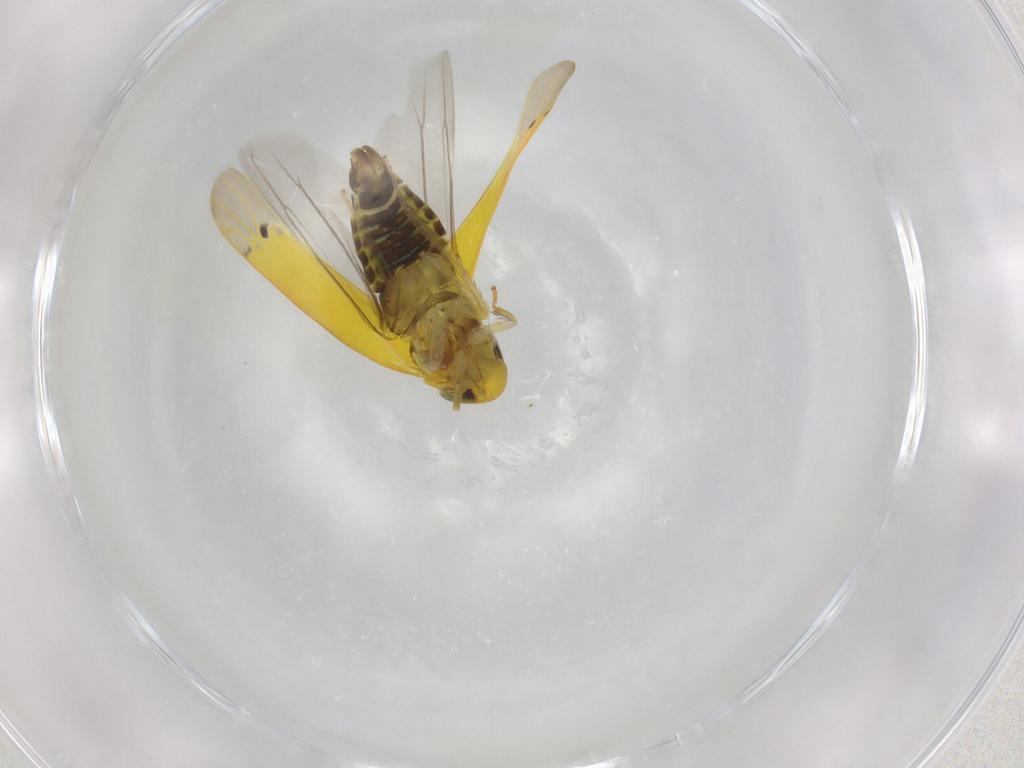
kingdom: Animalia
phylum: Arthropoda
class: Insecta
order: Hemiptera
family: Cicadellidae
